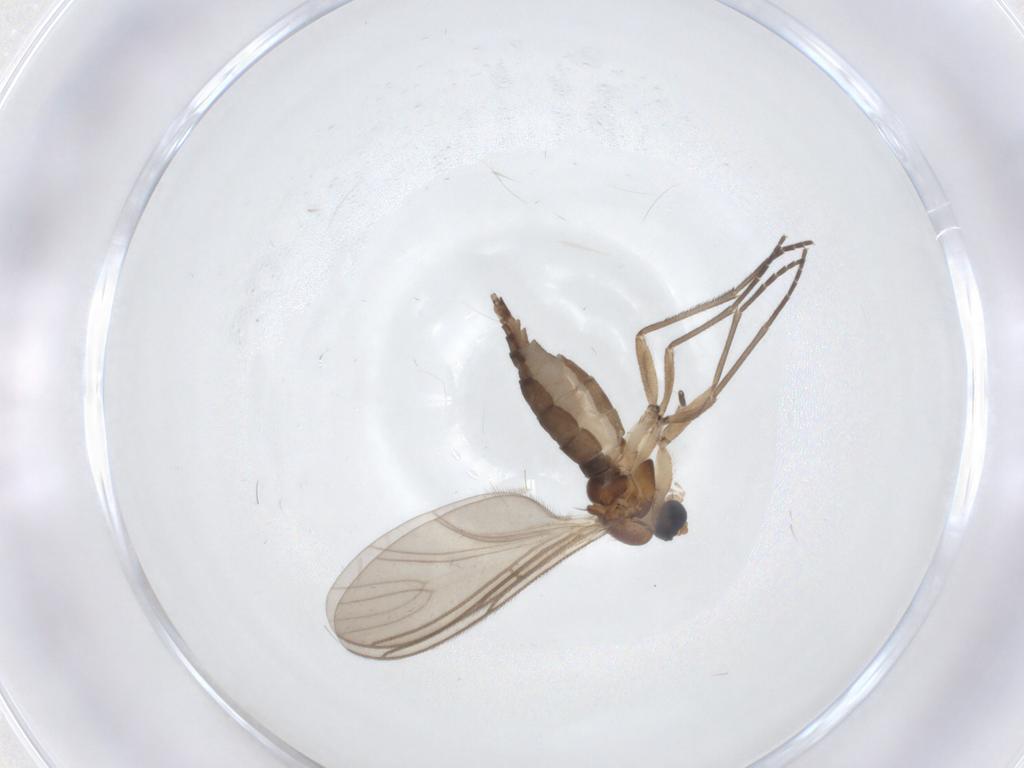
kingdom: Animalia
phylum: Arthropoda
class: Insecta
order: Diptera
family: Sciaridae
